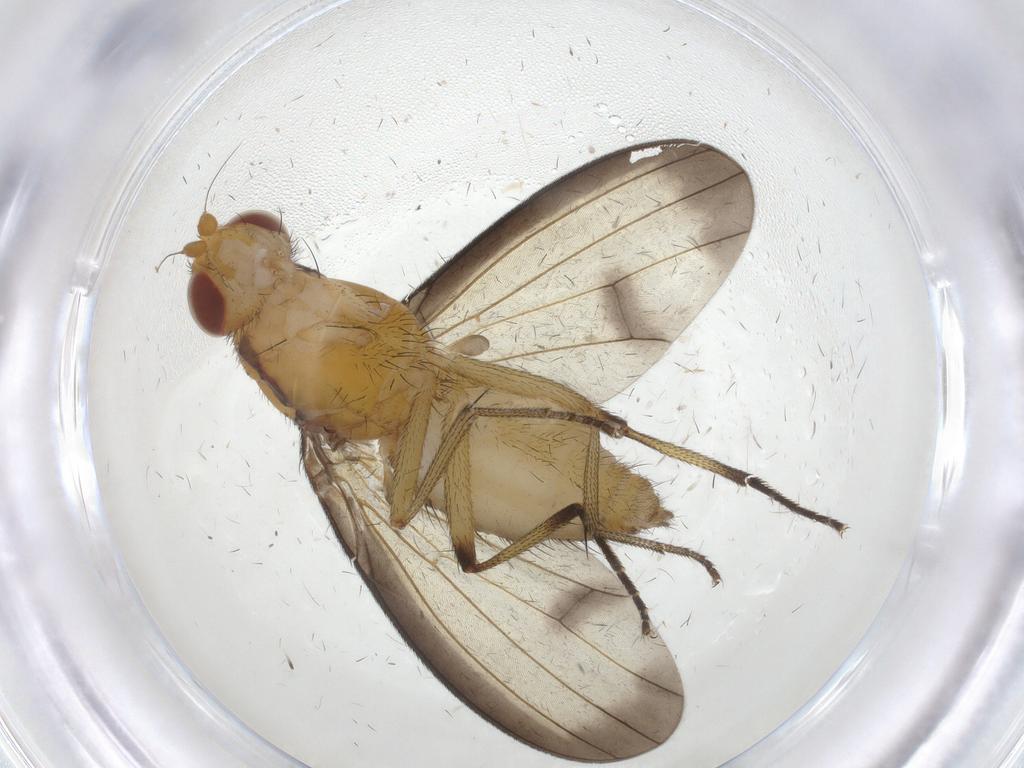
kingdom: Animalia
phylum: Arthropoda
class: Insecta
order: Diptera
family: Heleomyzidae
